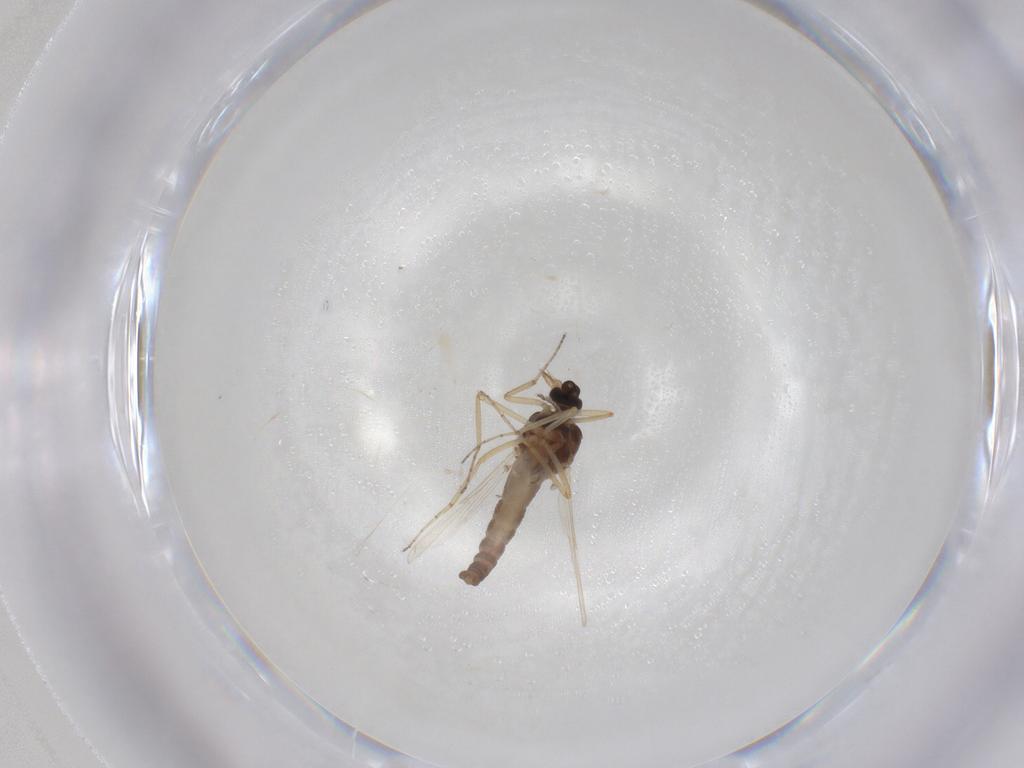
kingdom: Animalia
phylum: Arthropoda
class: Insecta
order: Diptera
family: Ceratopogonidae
